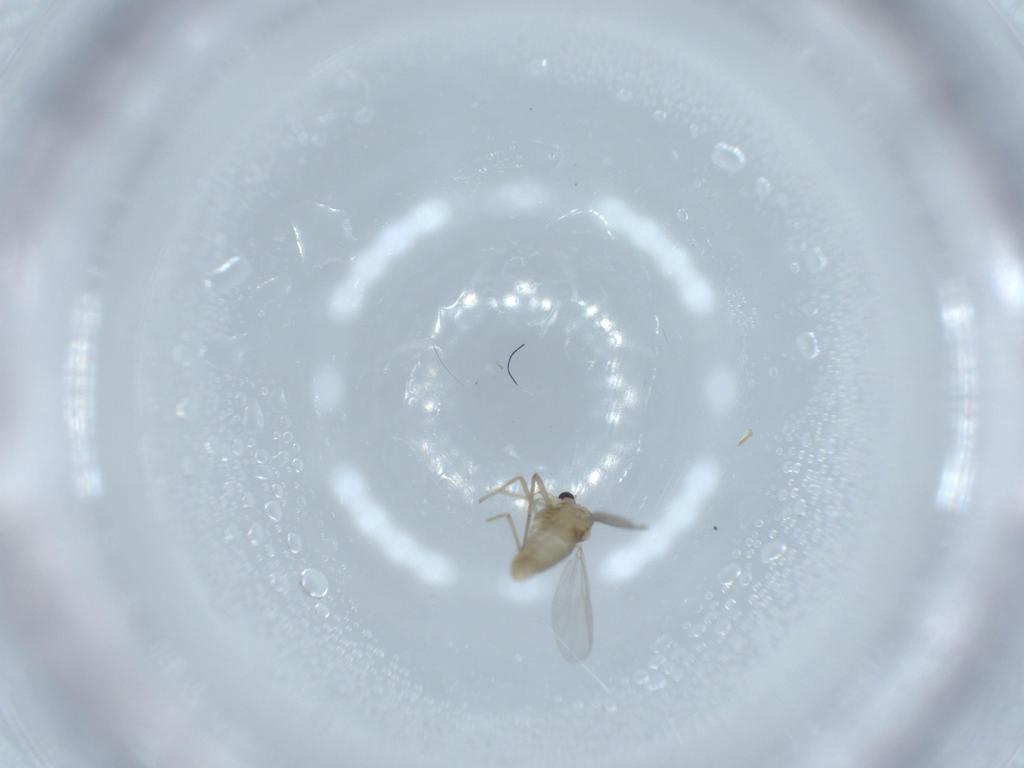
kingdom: Animalia
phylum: Arthropoda
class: Insecta
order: Diptera
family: Chironomidae
